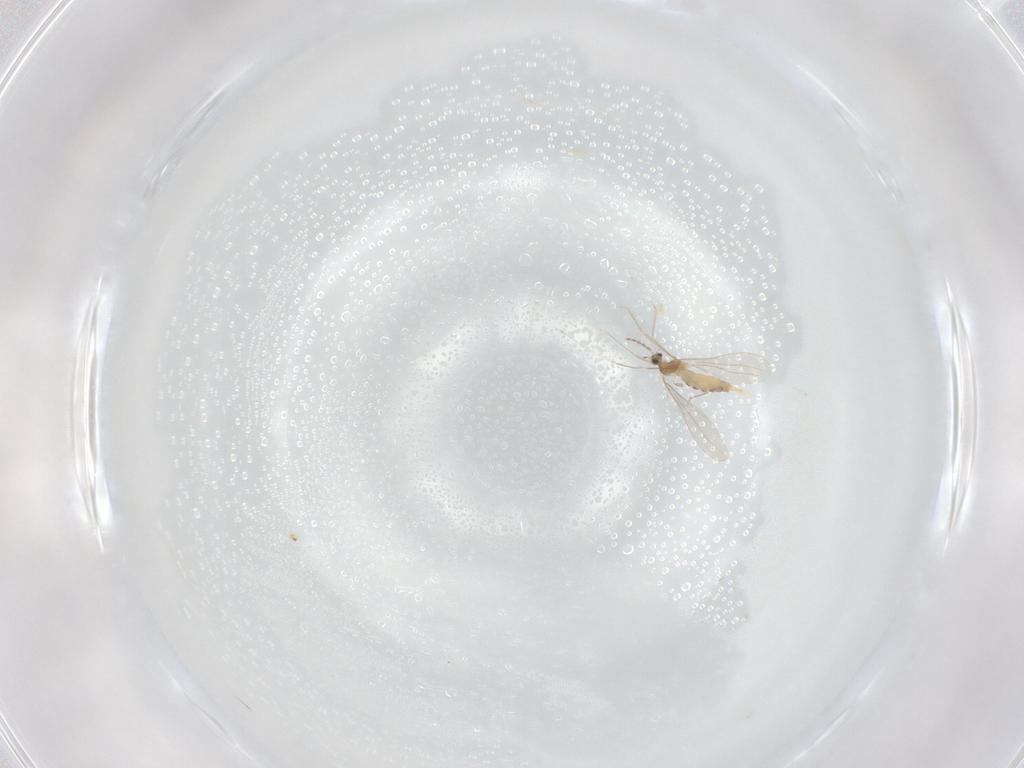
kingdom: Animalia
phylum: Arthropoda
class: Insecta
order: Diptera
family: Cecidomyiidae
